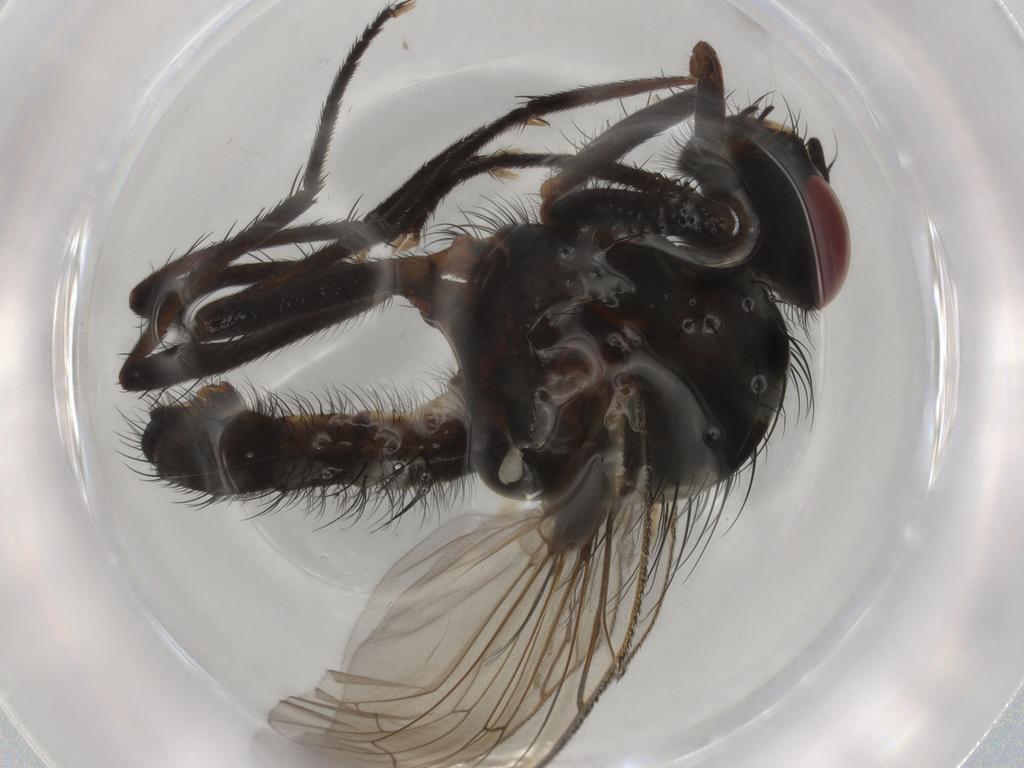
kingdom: Animalia
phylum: Arthropoda
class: Insecta
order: Diptera
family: Anthomyiidae
